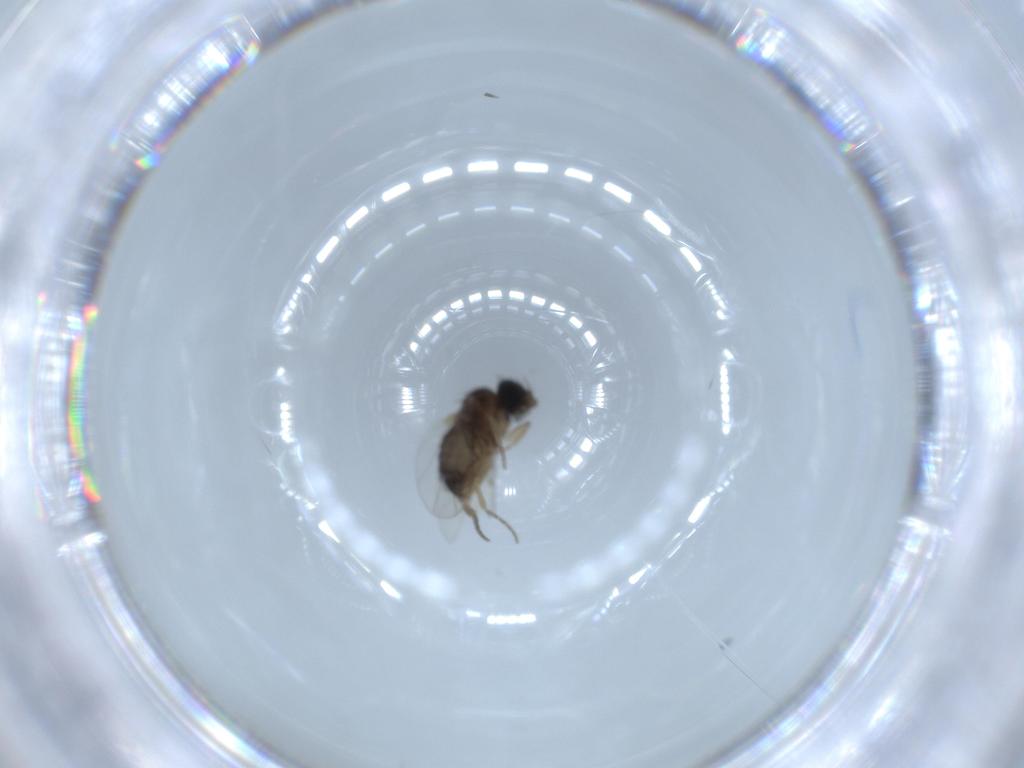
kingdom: Animalia
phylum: Arthropoda
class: Insecta
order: Diptera
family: Phoridae
